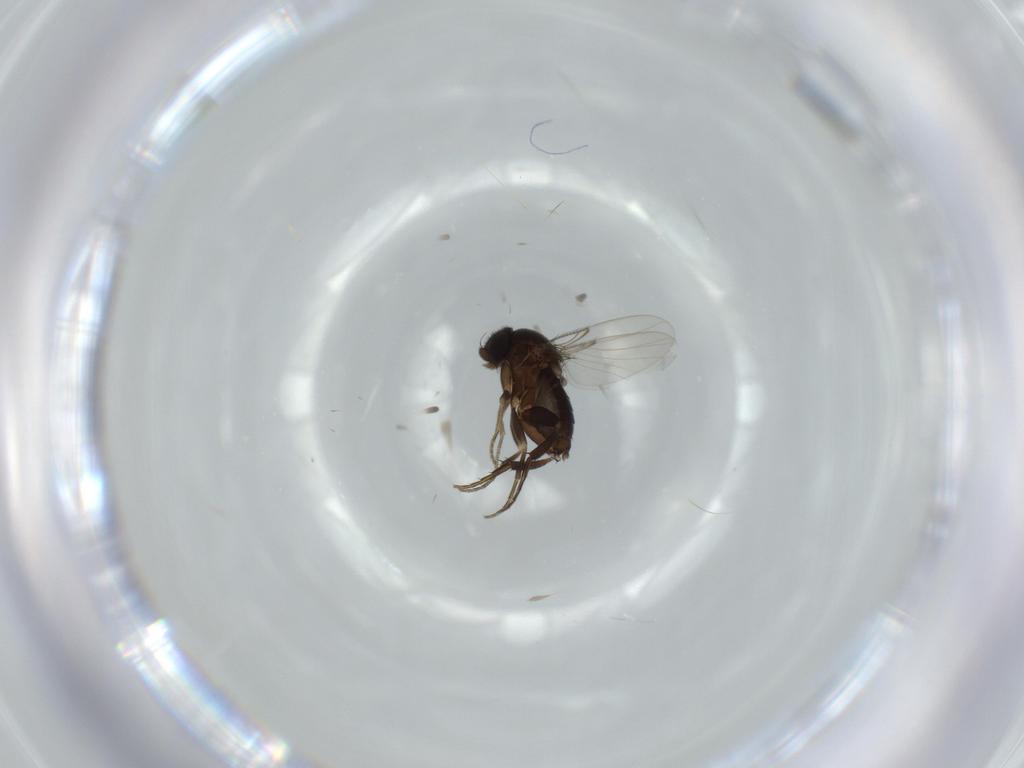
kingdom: Animalia
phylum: Arthropoda
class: Insecta
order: Diptera
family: Phoridae
